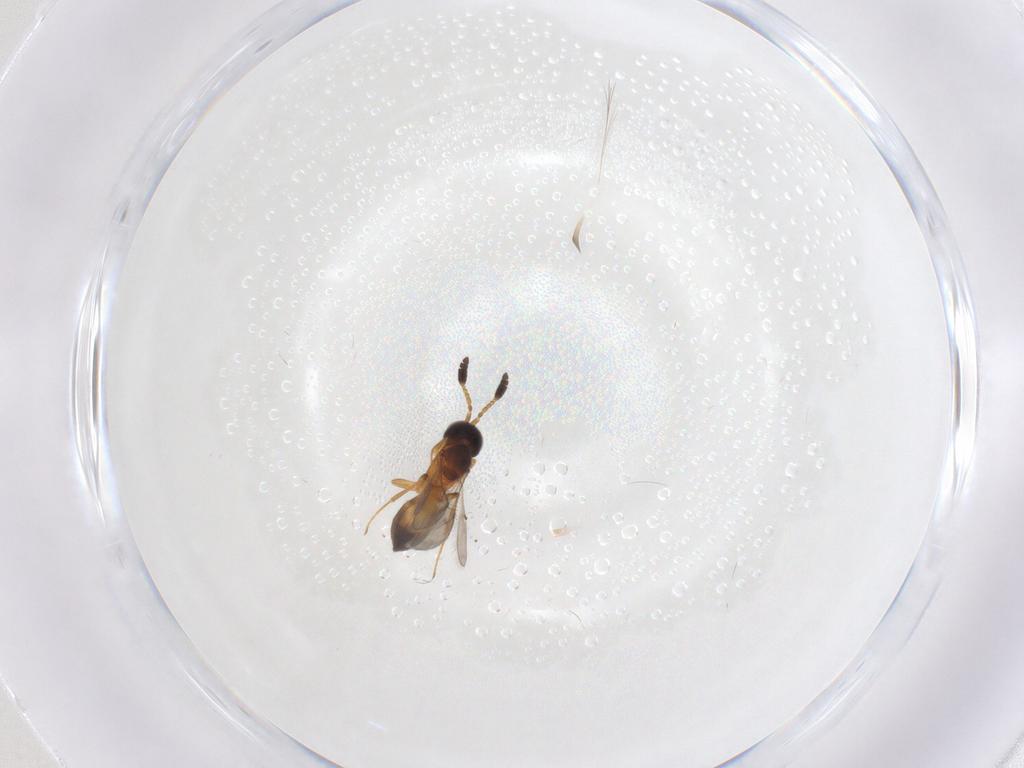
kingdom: Animalia
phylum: Arthropoda
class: Insecta
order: Hymenoptera
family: Scelionidae
